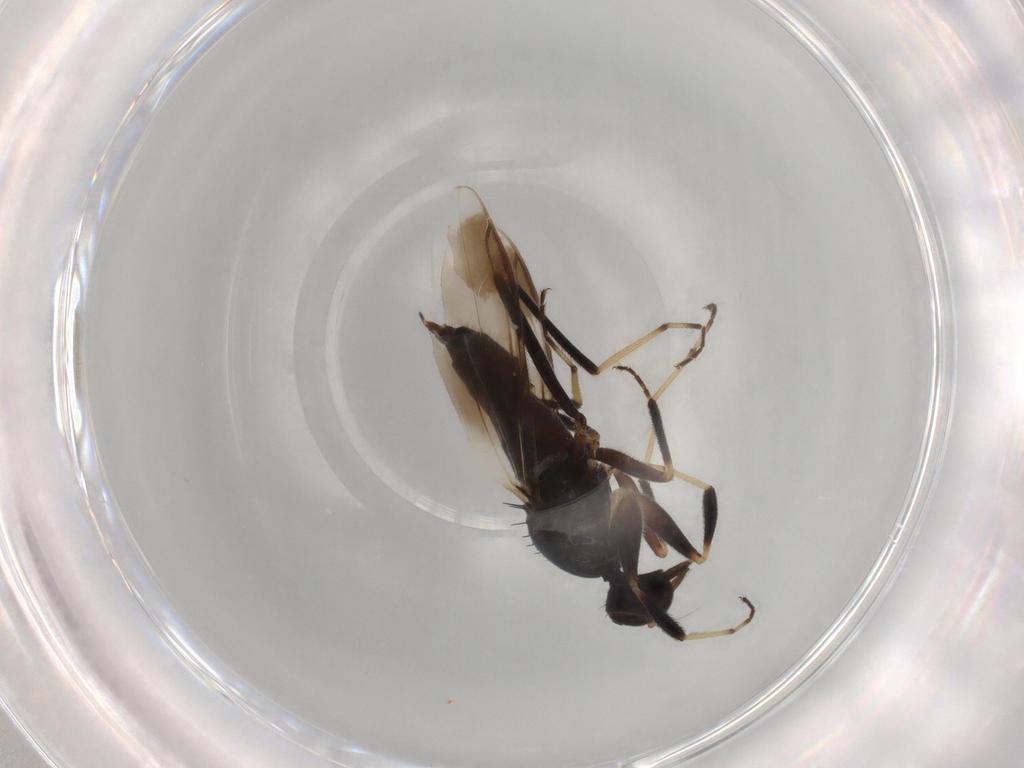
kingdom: Animalia
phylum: Arthropoda
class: Insecta
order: Diptera
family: Hybotidae
